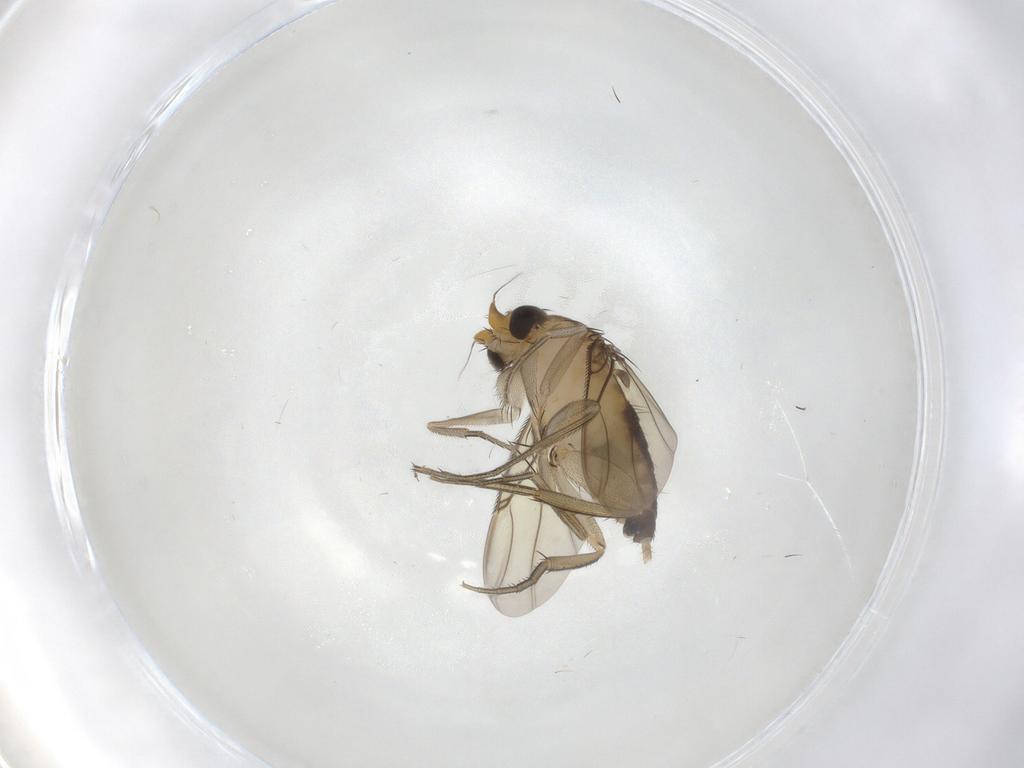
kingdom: Animalia
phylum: Arthropoda
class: Insecta
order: Diptera
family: Phoridae
